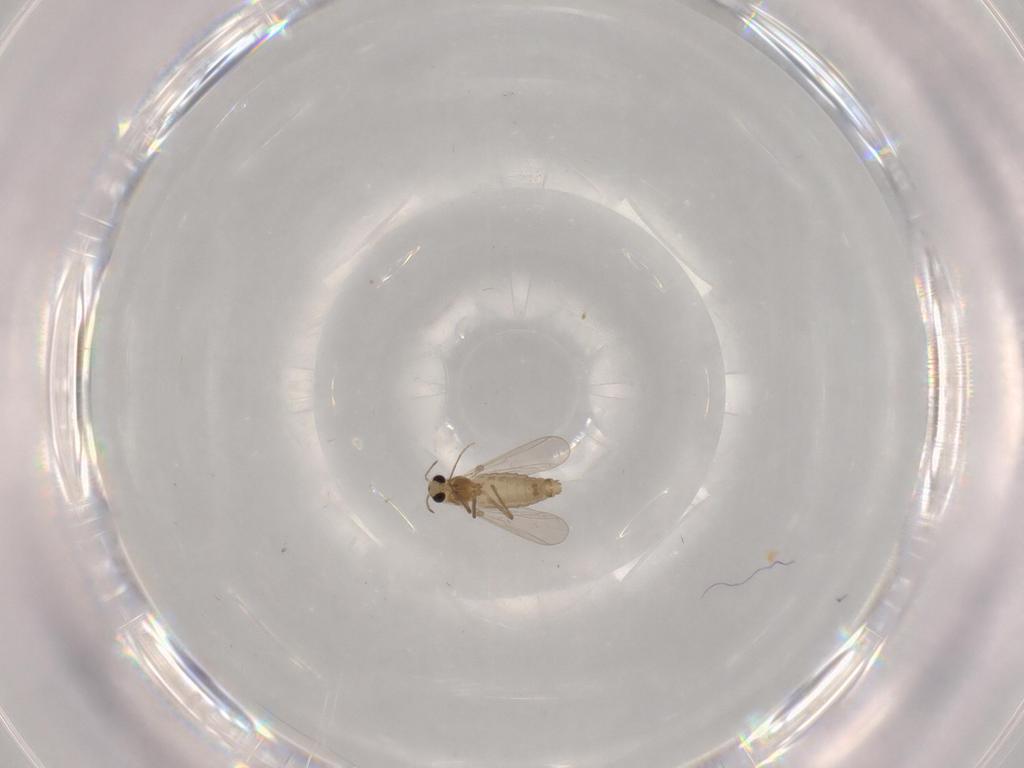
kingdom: Animalia
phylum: Arthropoda
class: Insecta
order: Diptera
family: Chironomidae
